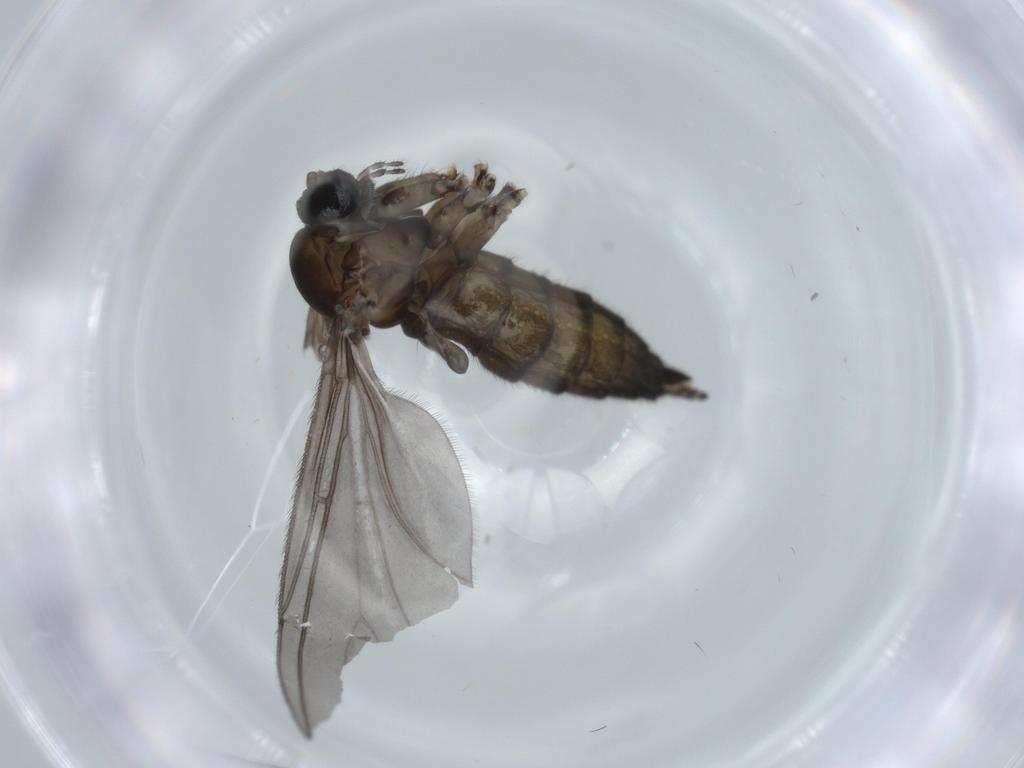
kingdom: Animalia
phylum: Arthropoda
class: Insecta
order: Diptera
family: Sciaridae
